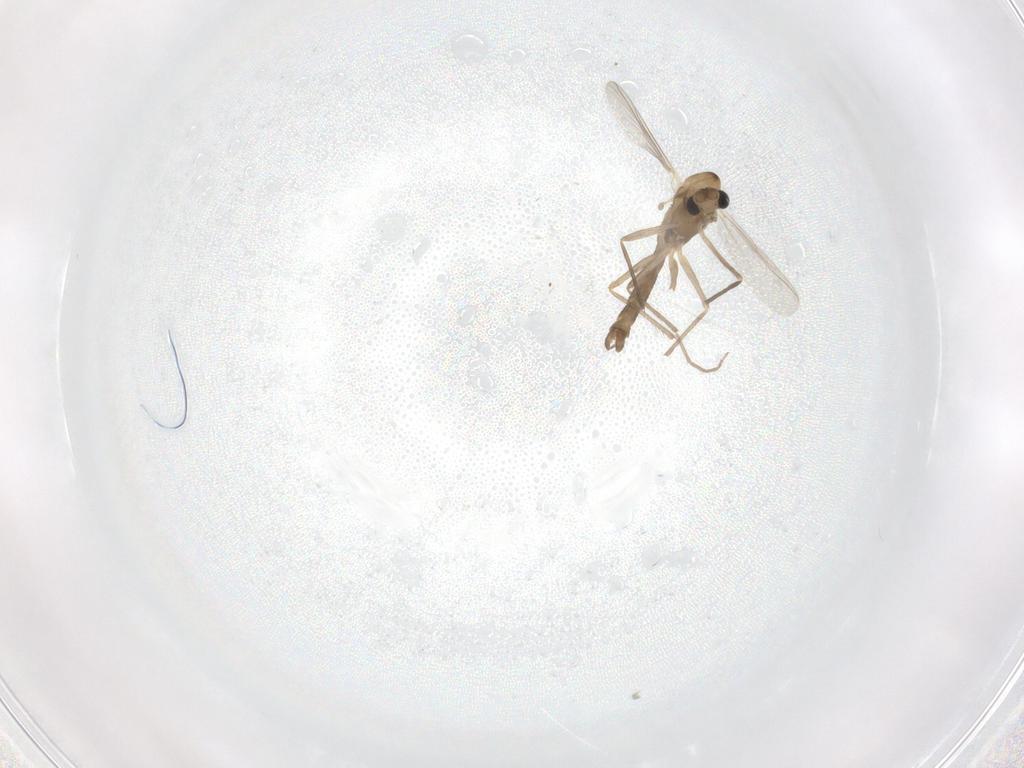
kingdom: Animalia
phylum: Arthropoda
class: Insecta
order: Diptera
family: Chironomidae
